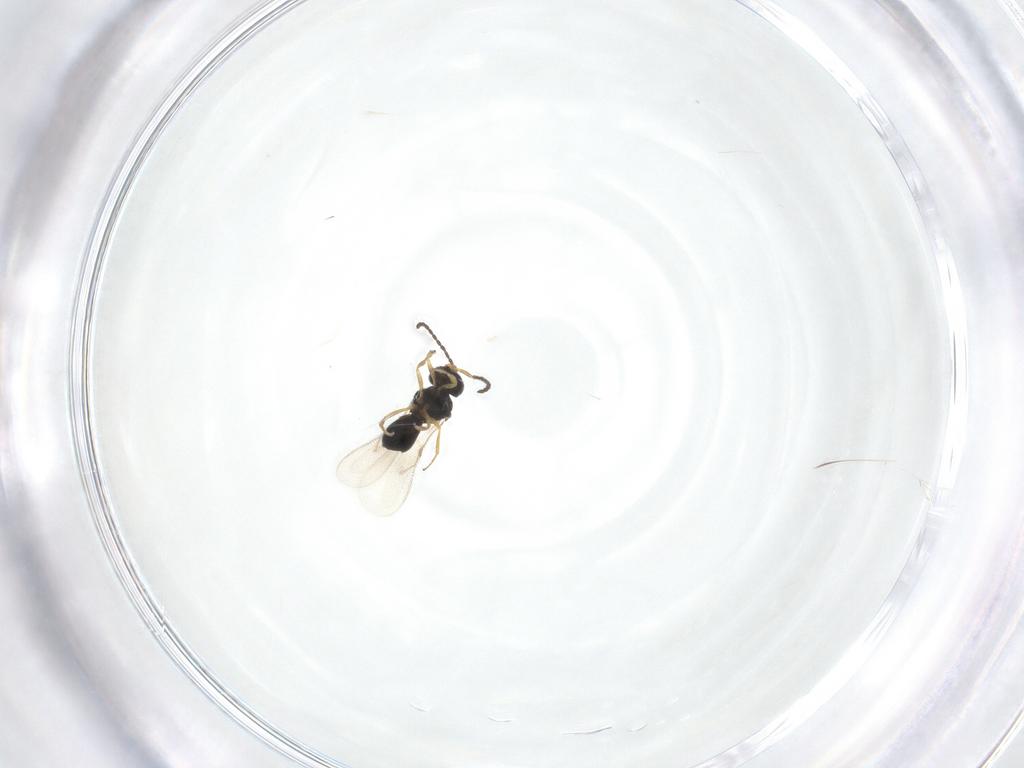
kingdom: Animalia
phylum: Arthropoda
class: Insecta
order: Hymenoptera
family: Scelionidae
